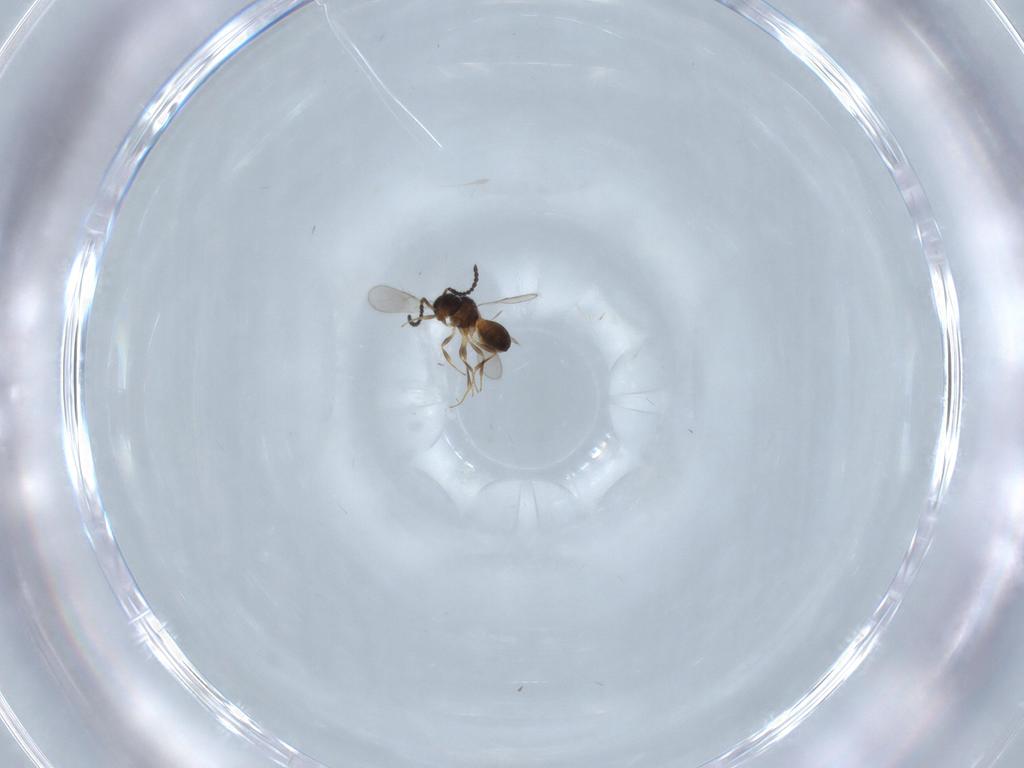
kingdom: Animalia
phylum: Arthropoda
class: Insecta
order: Hymenoptera
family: Scelionidae
